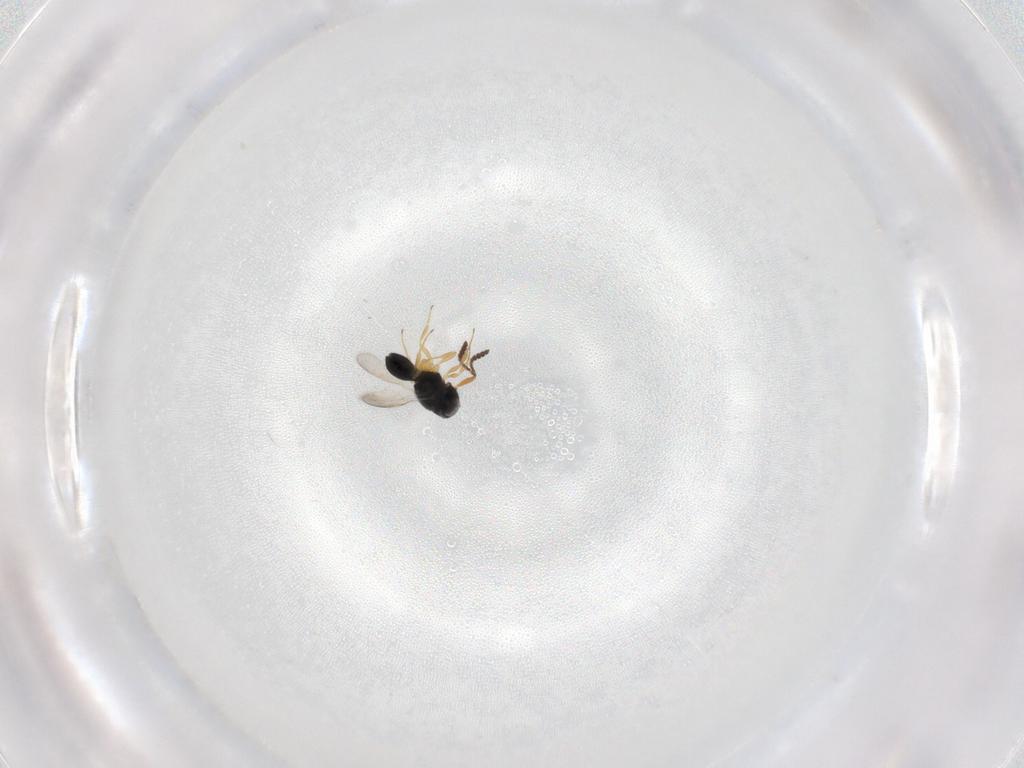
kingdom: Animalia
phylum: Arthropoda
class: Insecta
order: Hymenoptera
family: Scelionidae
